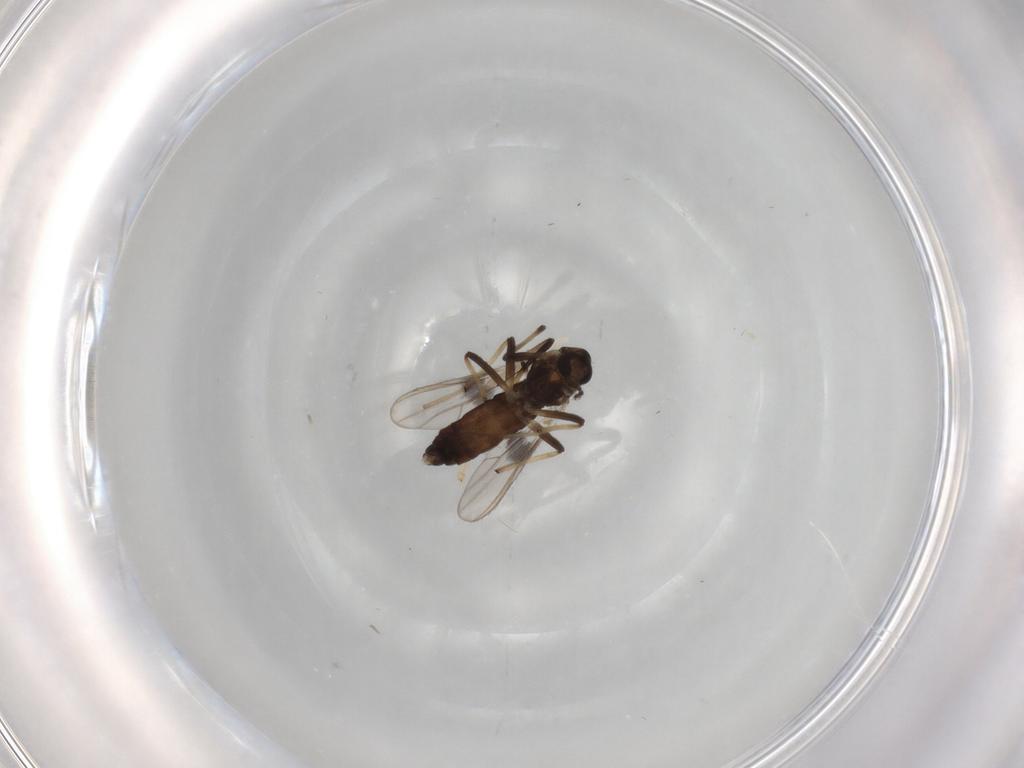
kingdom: Animalia
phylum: Arthropoda
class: Insecta
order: Diptera
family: Chironomidae
